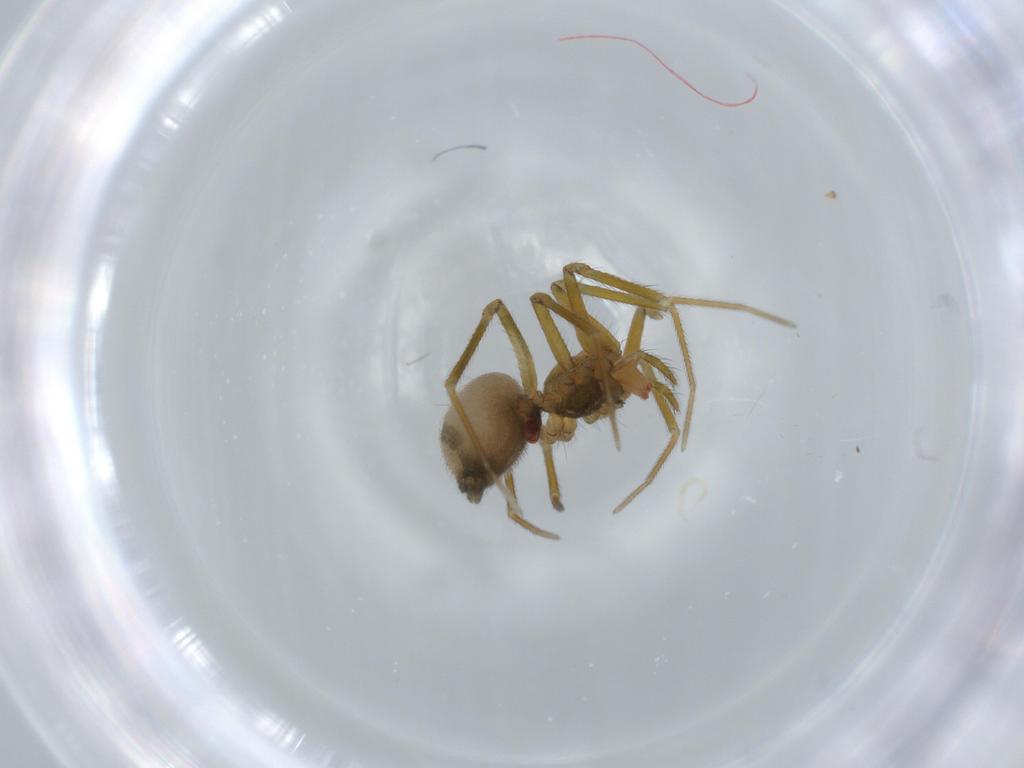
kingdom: Animalia
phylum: Arthropoda
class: Arachnida
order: Araneae
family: Linyphiidae
